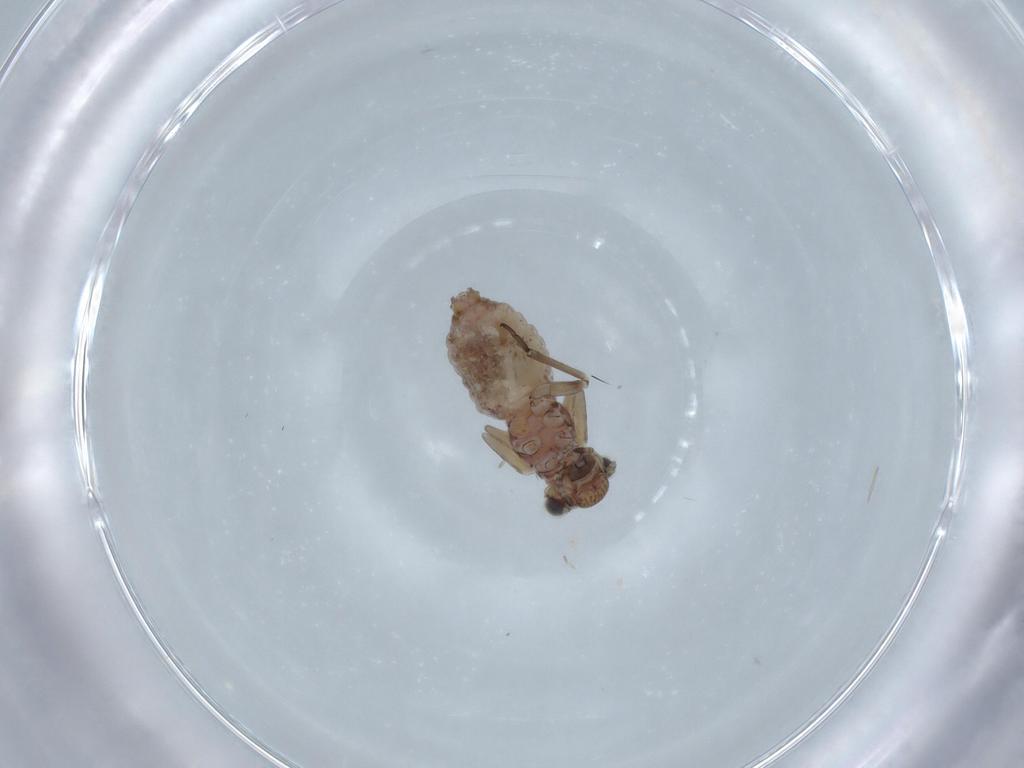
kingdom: Animalia
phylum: Arthropoda
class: Insecta
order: Psocodea
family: Psocidae
